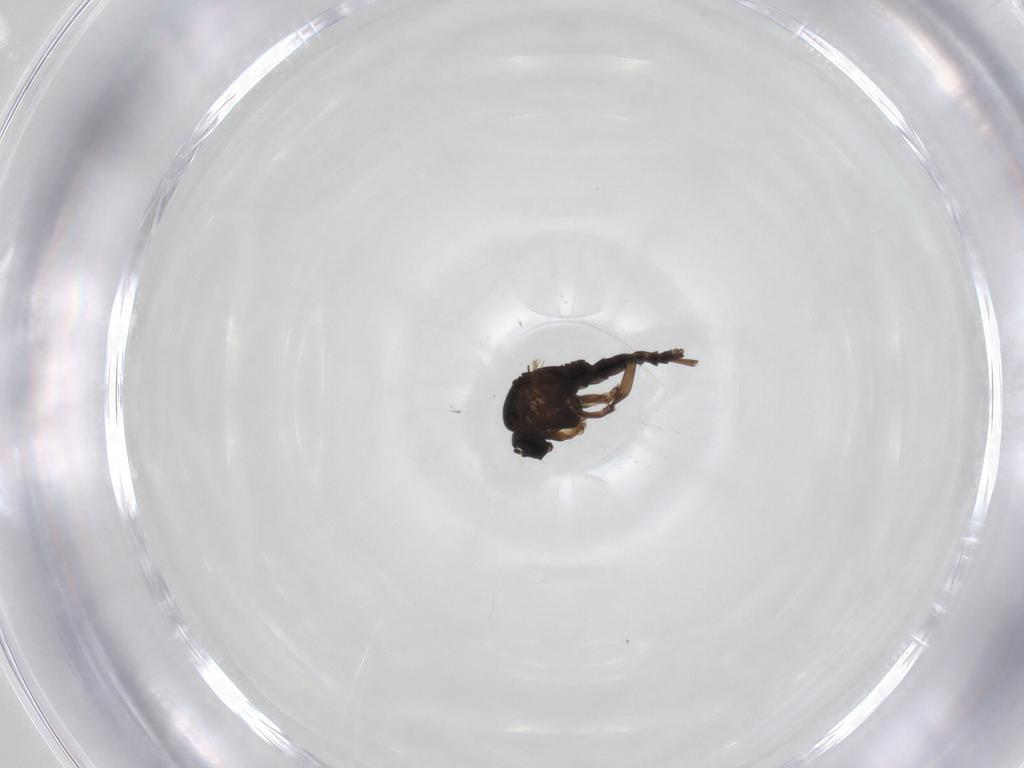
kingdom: Animalia
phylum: Arthropoda
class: Insecta
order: Diptera
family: Sciaridae
